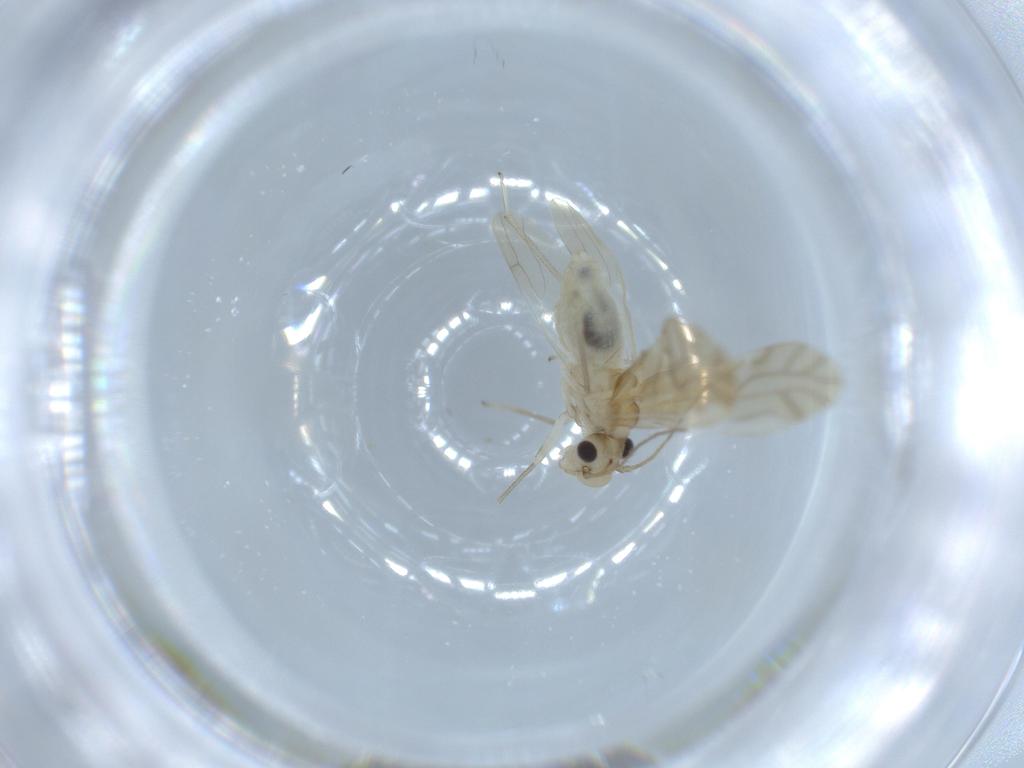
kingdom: Animalia
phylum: Arthropoda
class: Insecta
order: Psocodea
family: Caeciliusidae
